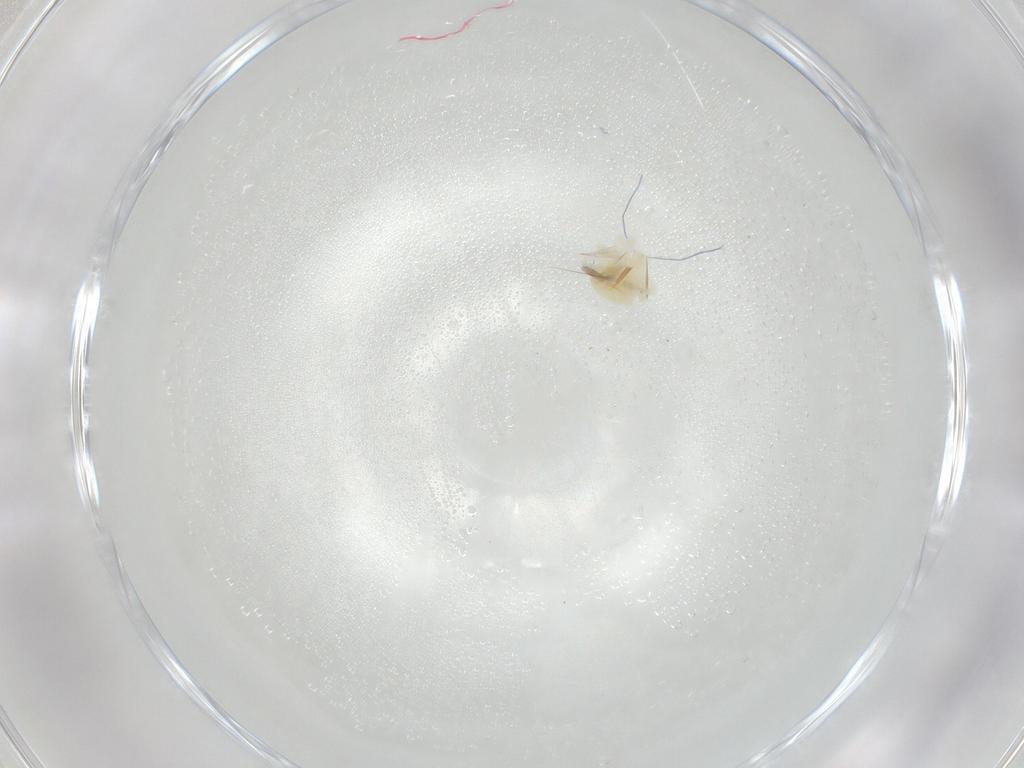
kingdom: Animalia
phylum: Arthropoda
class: Arachnida
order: Trombidiformes
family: Anystidae
